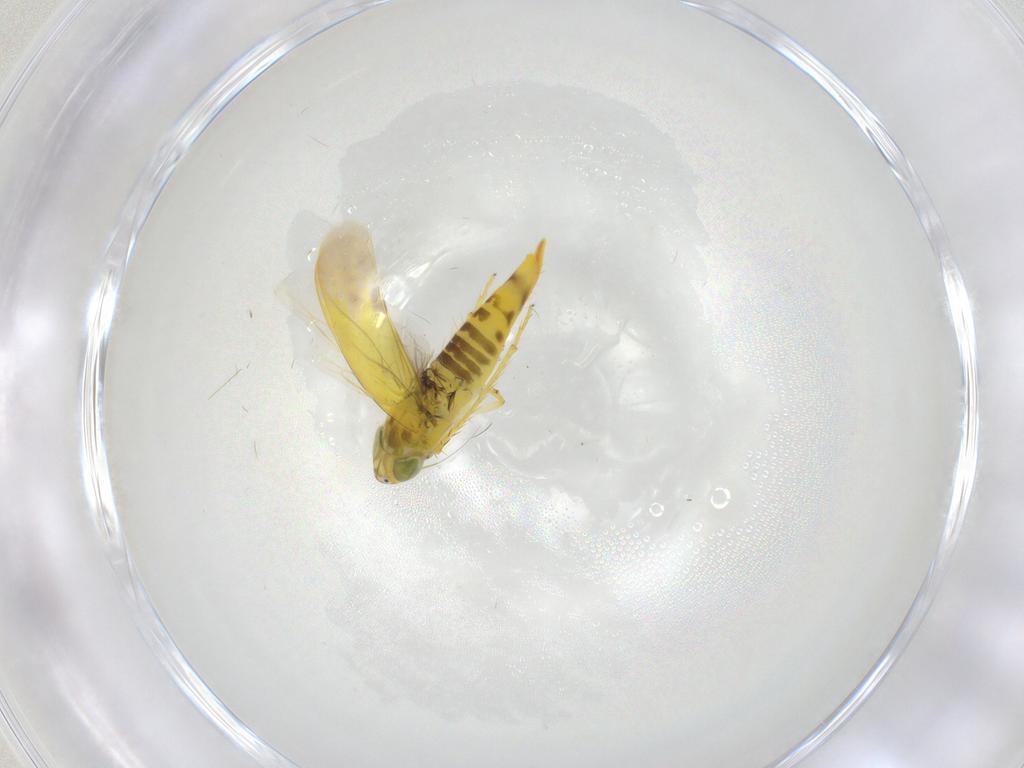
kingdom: Animalia
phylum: Arthropoda
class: Insecta
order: Hemiptera
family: Cicadellidae
